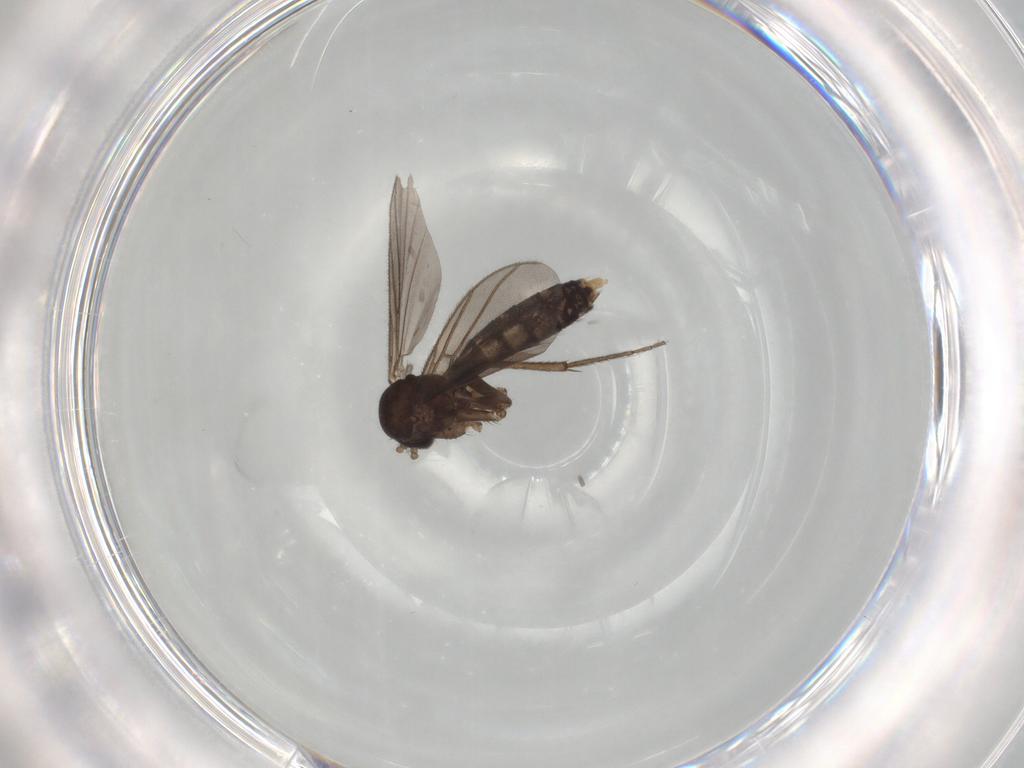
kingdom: Animalia
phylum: Arthropoda
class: Insecta
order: Diptera
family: Mycetophilidae
